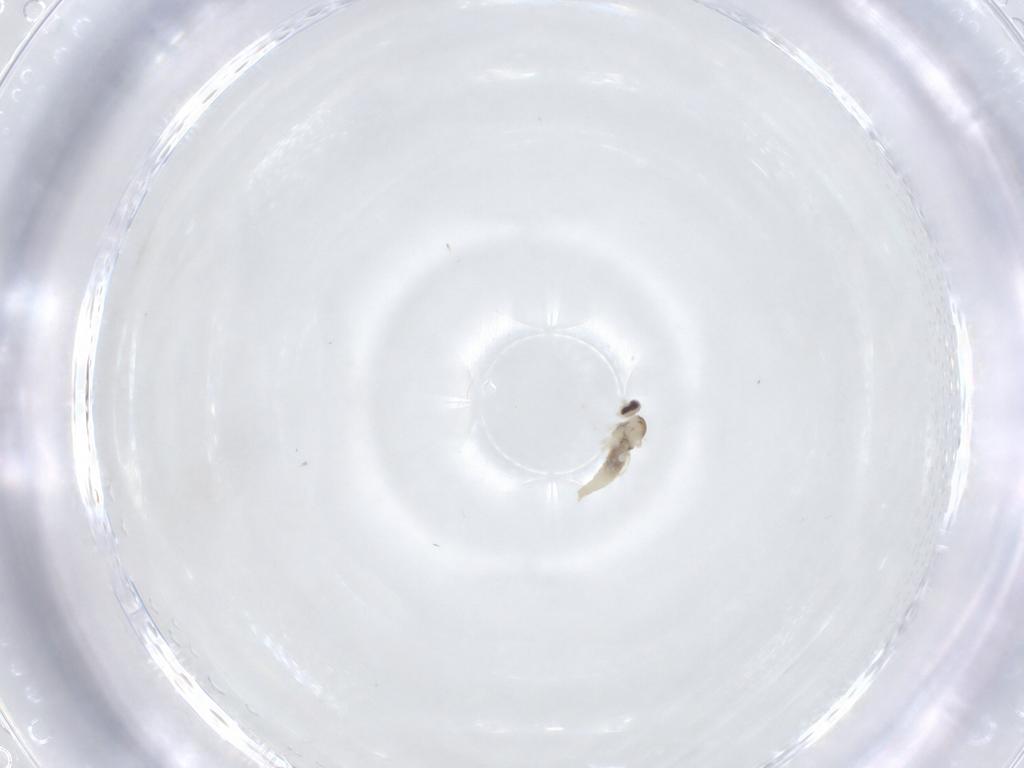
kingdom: Animalia
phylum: Arthropoda
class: Insecta
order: Diptera
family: Cecidomyiidae
